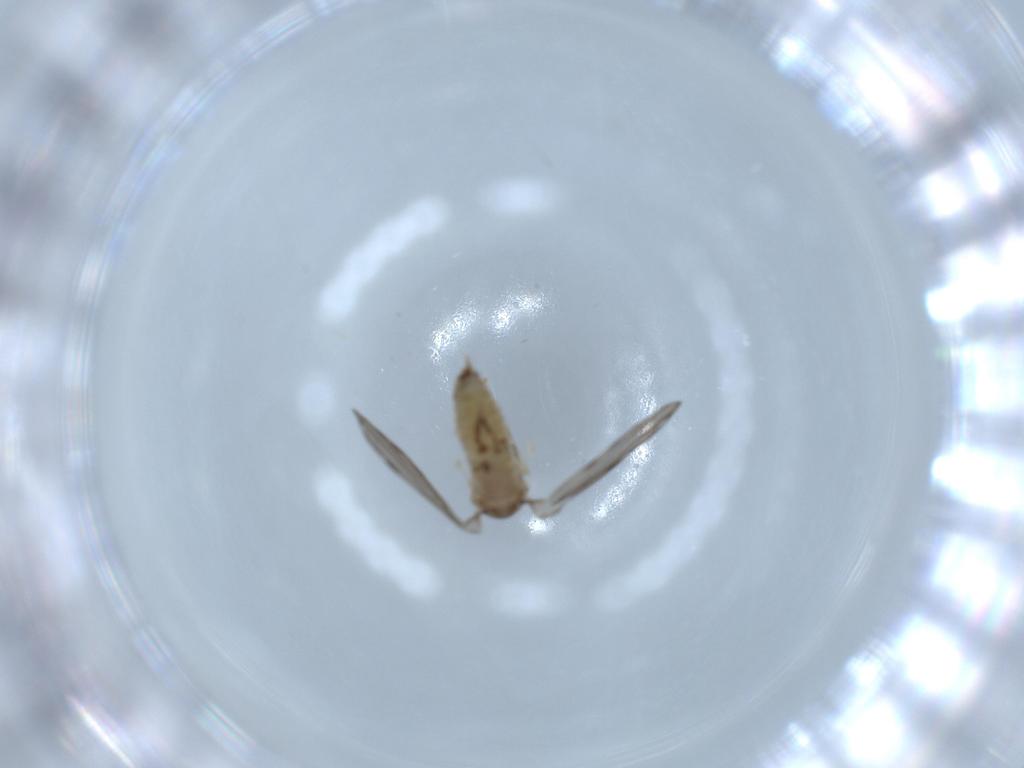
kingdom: Animalia
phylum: Arthropoda
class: Insecta
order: Diptera
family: Psychodidae
